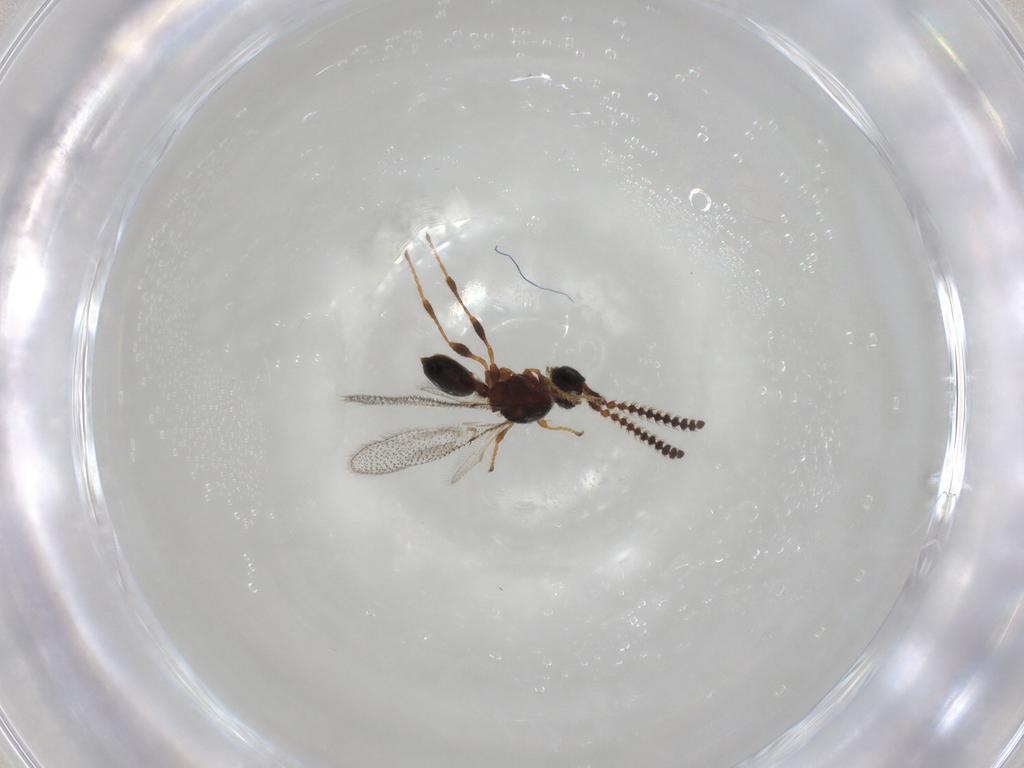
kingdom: Animalia
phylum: Arthropoda
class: Insecta
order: Hymenoptera
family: Diapriidae
